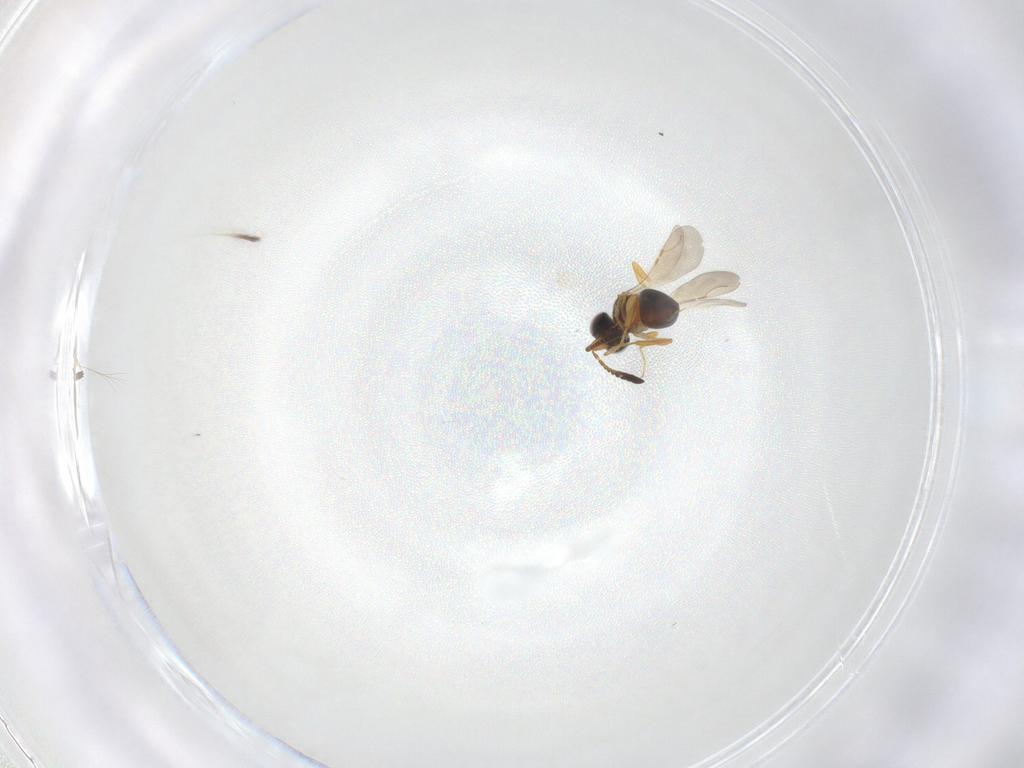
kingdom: Animalia
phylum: Arthropoda
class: Insecta
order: Hymenoptera
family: Ceraphronidae
